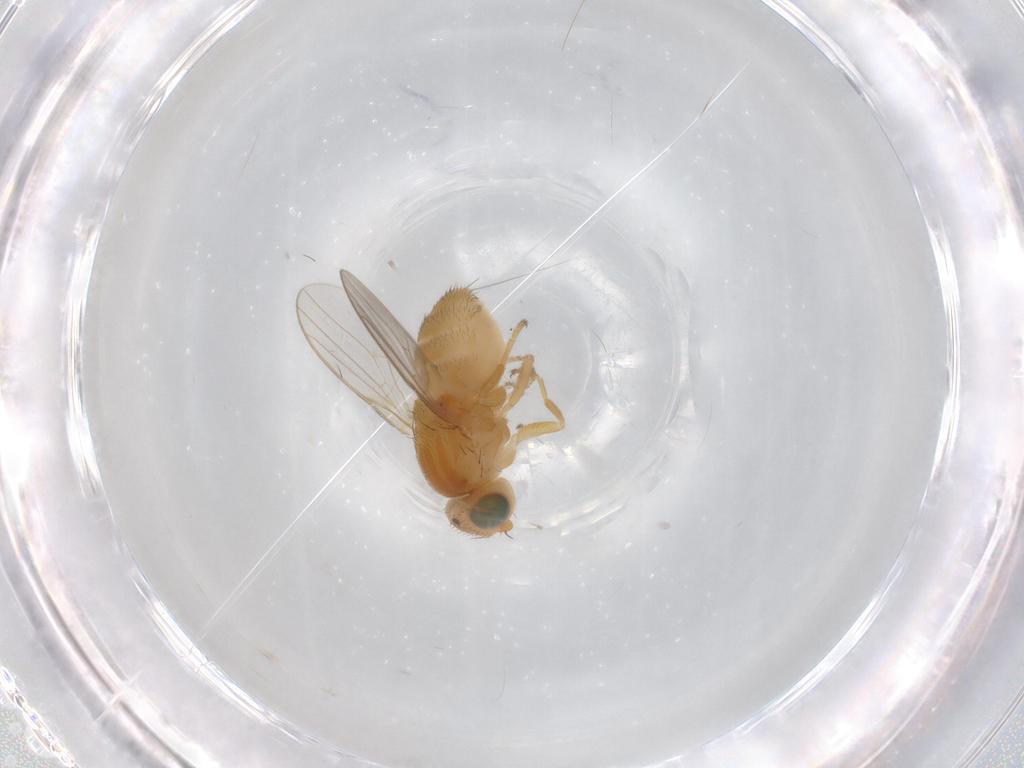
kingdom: Animalia
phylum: Arthropoda
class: Insecta
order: Diptera
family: Chloropidae
